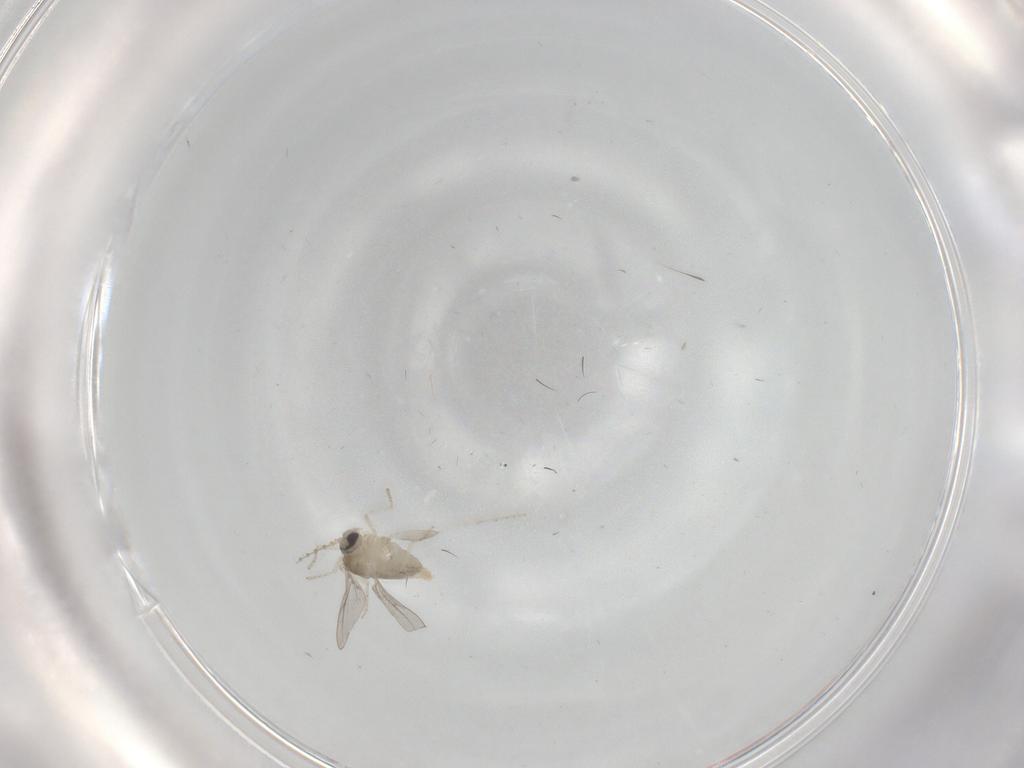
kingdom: Animalia
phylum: Arthropoda
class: Insecta
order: Diptera
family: Cecidomyiidae
